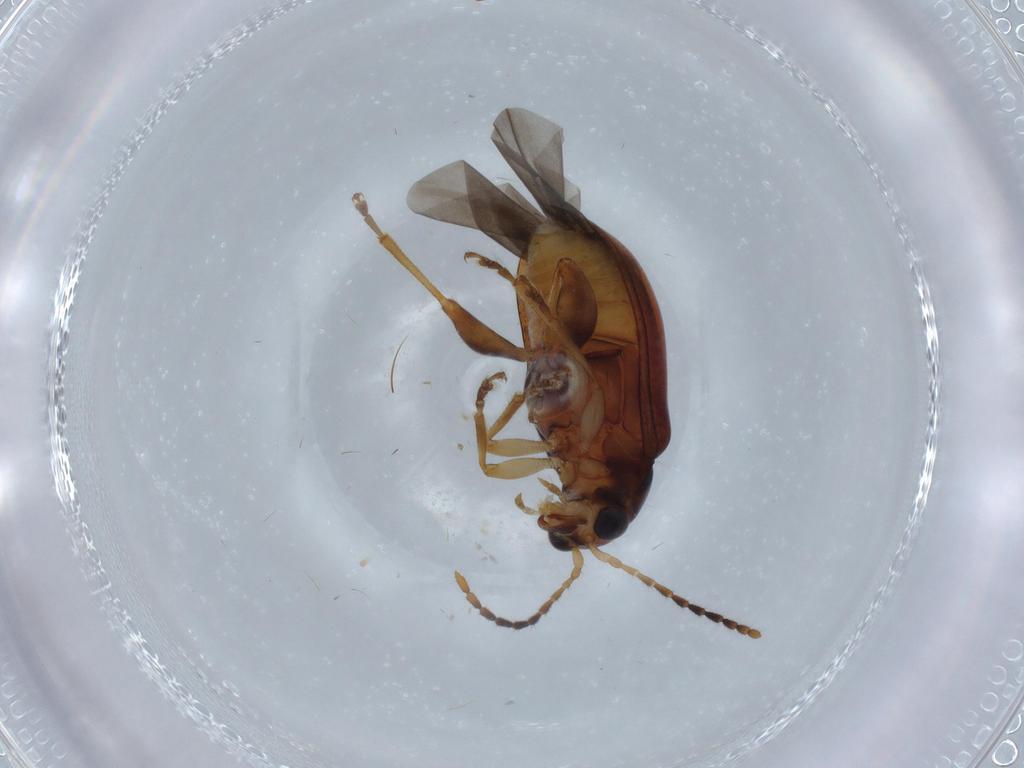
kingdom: Animalia
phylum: Arthropoda
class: Insecta
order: Coleoptera
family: Chrysomelidae
